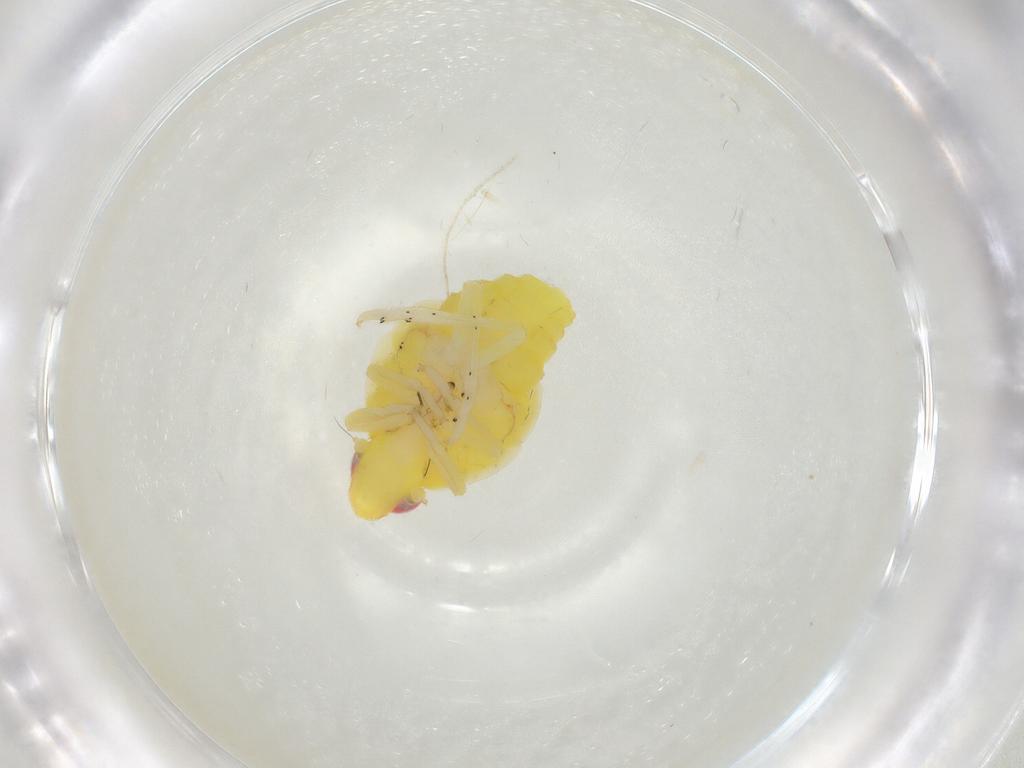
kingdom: Animalia
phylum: Arthropoda
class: Insecta
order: Hemiptera
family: Tropiduchidae
